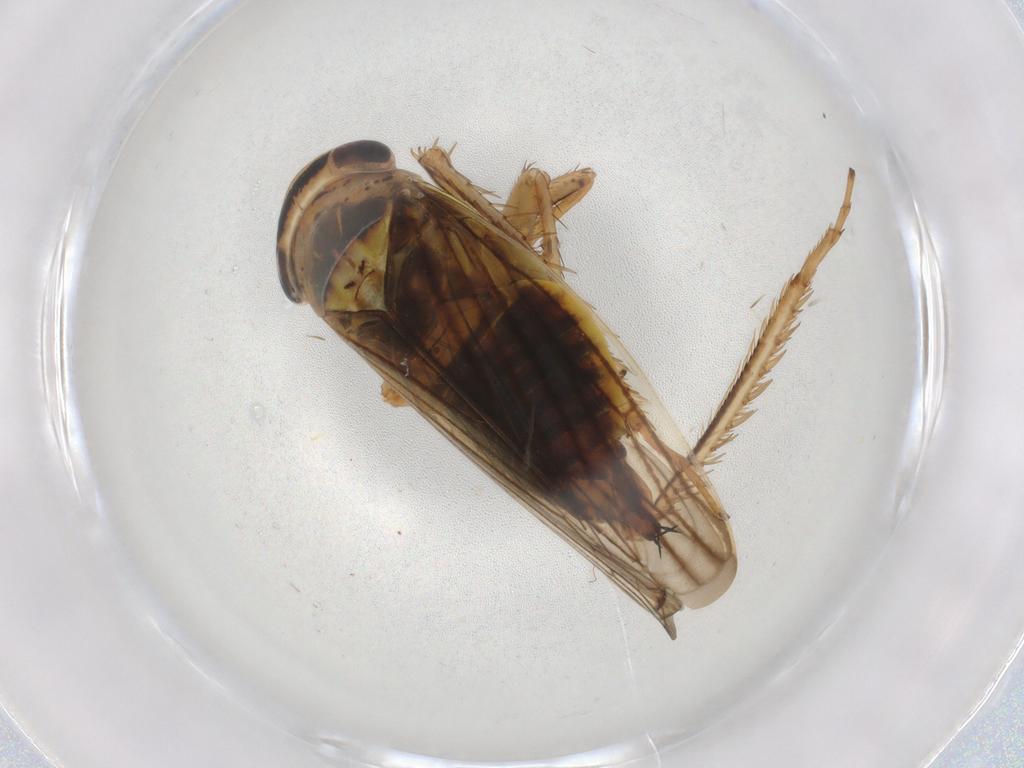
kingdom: Animalia
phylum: Arthropoda
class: Insecta
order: Hemiptera
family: Cicadellidae
